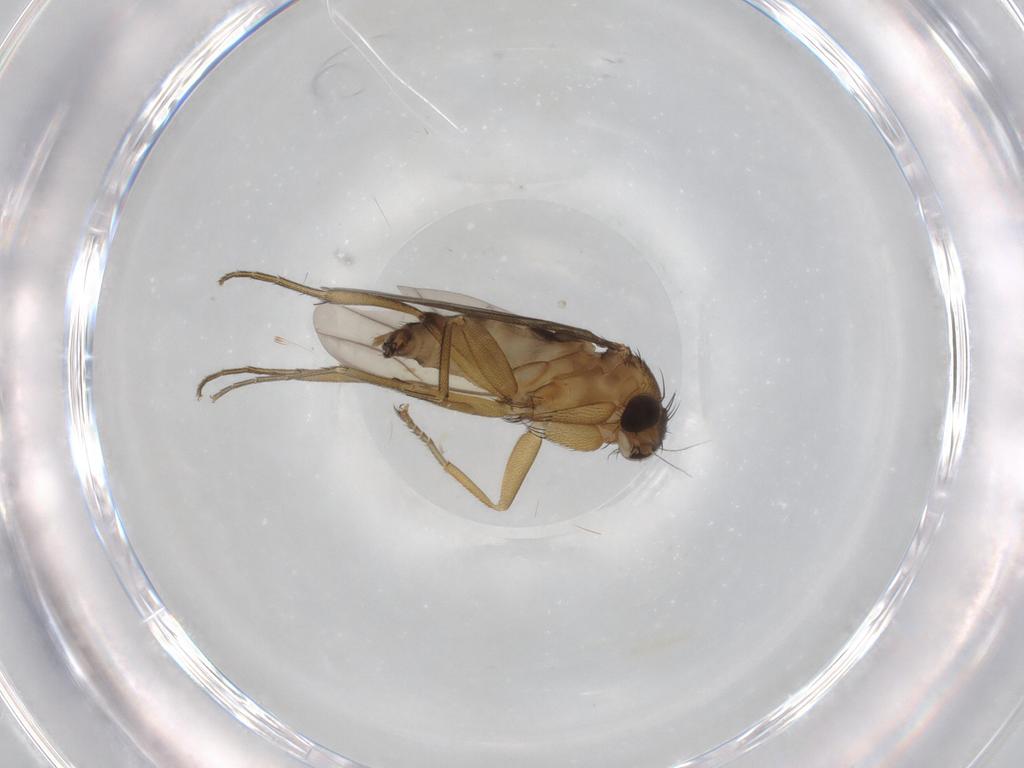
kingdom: Animalia
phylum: Arthropoda
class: Insecta
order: Diptera
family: Phoridae
